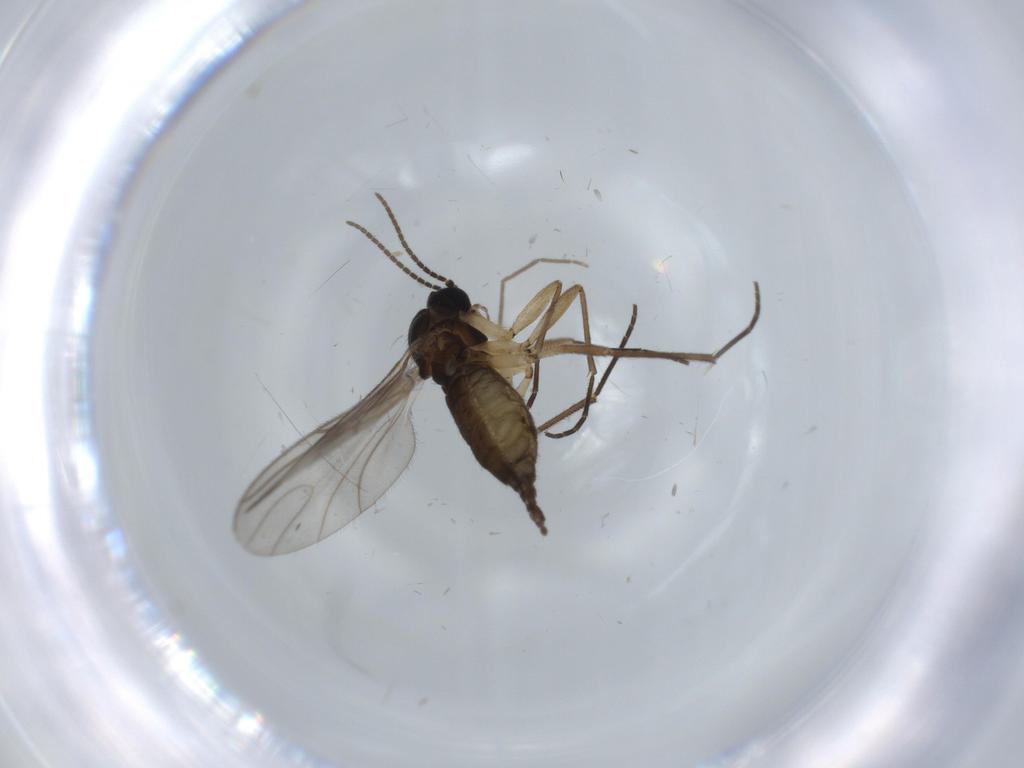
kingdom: Animalia
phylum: Arthropoda
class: Insecta
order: Diptera
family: Sciaridae
